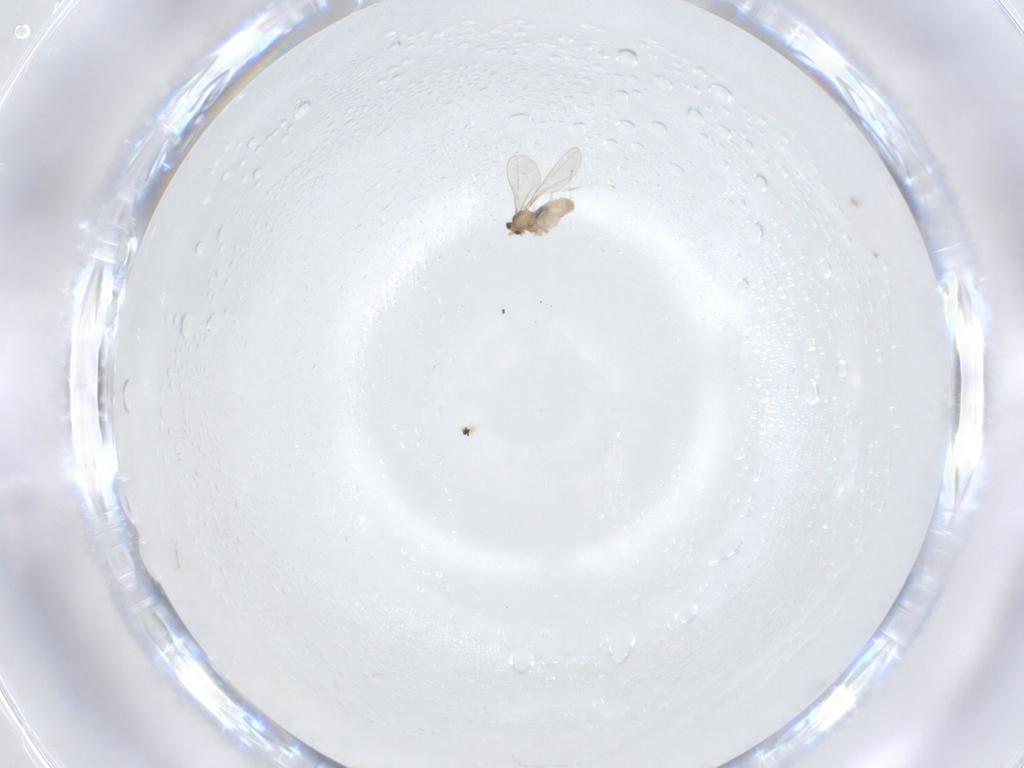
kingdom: Animalia
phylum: Arthropoda
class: Insecta
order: Diptera
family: Cecidomyiidae
